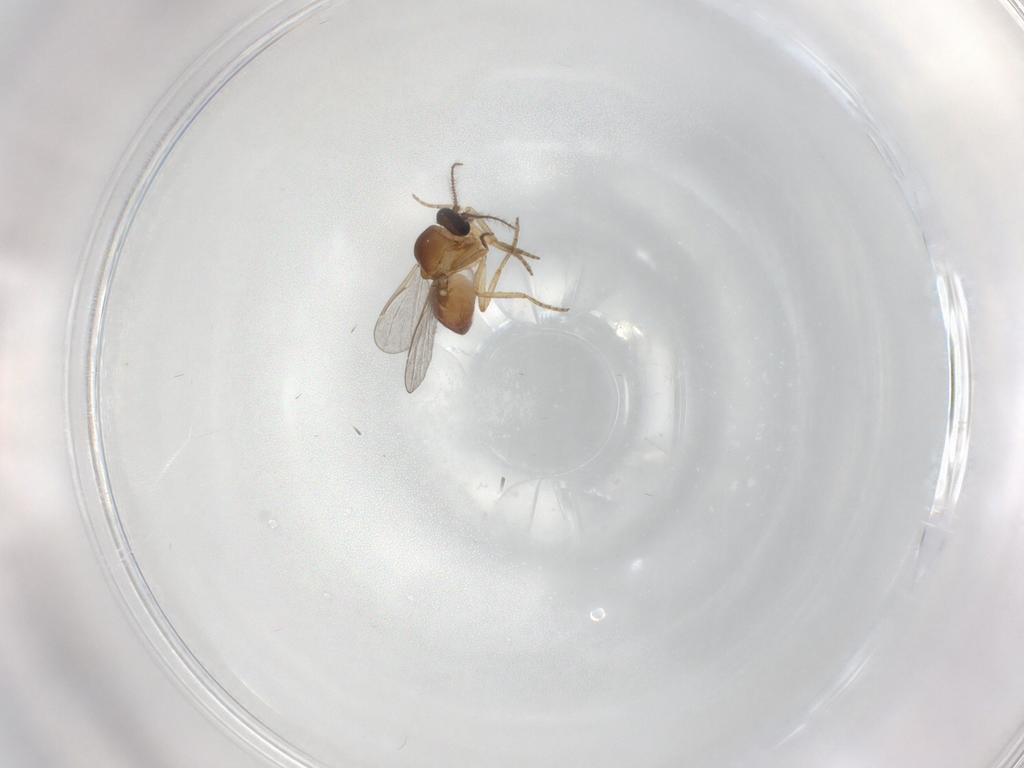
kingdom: Animalia
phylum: Arthropoda
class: Insecta
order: Diptera
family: Ceratopogonidae
